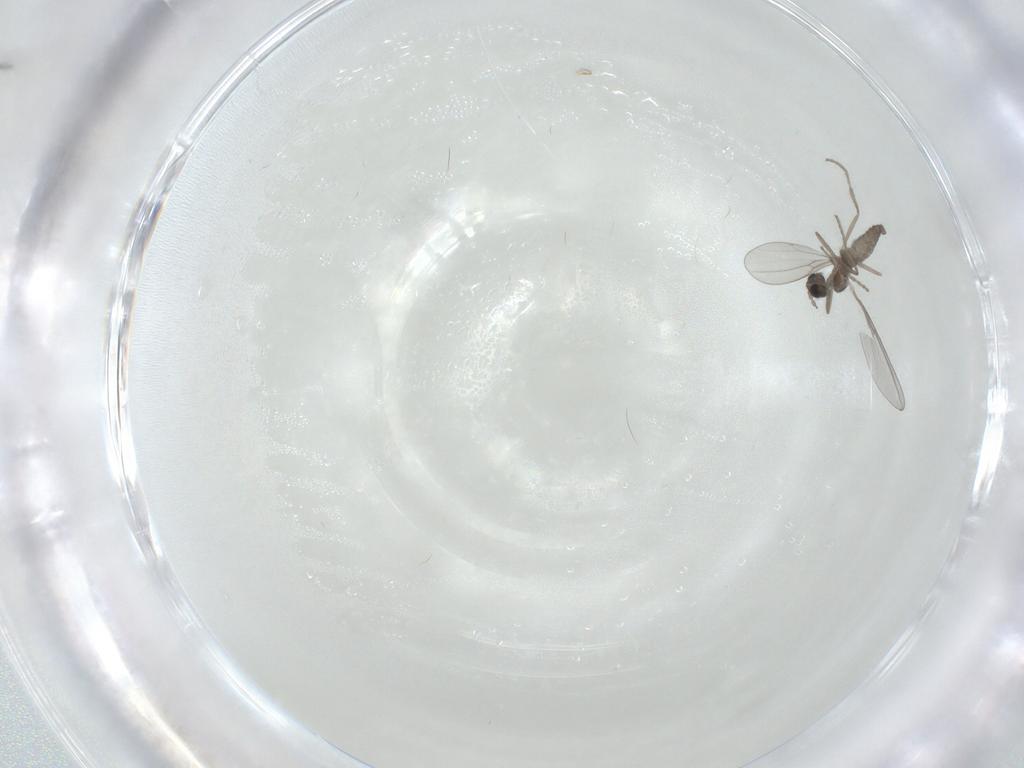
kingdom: Animalia
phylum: Arthropoda
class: Insecta
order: Diptera
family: Cecidomyiidae
